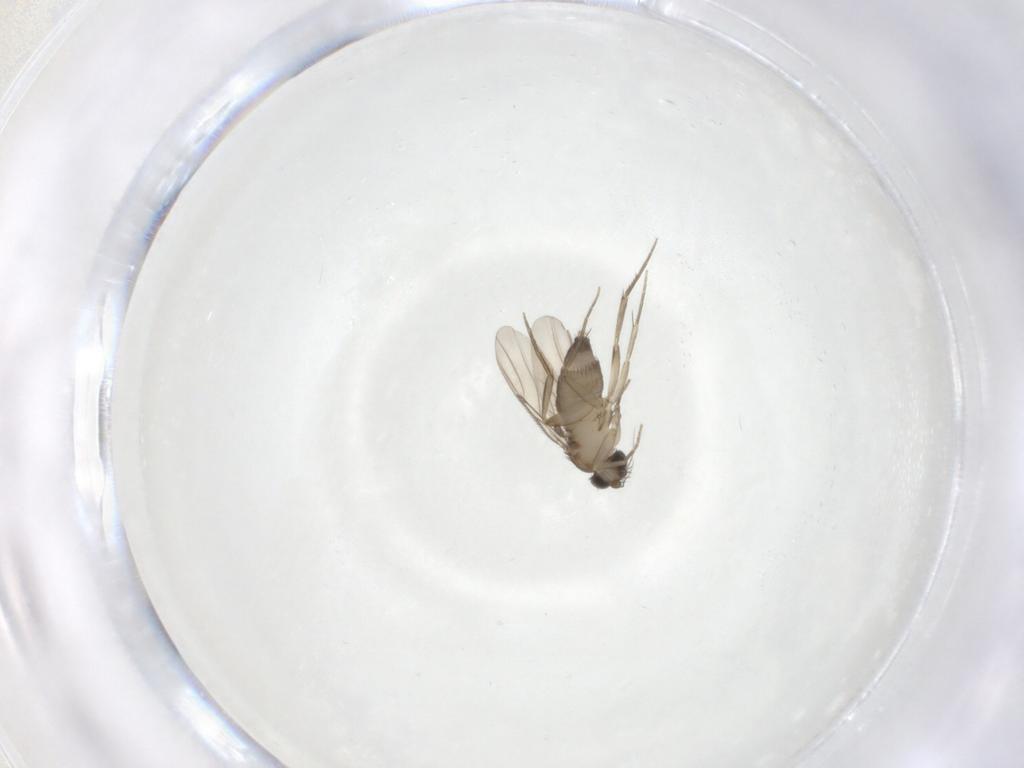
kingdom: Animalia
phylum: Arthropoda
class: Insecta
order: Diptera
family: Phoridae
